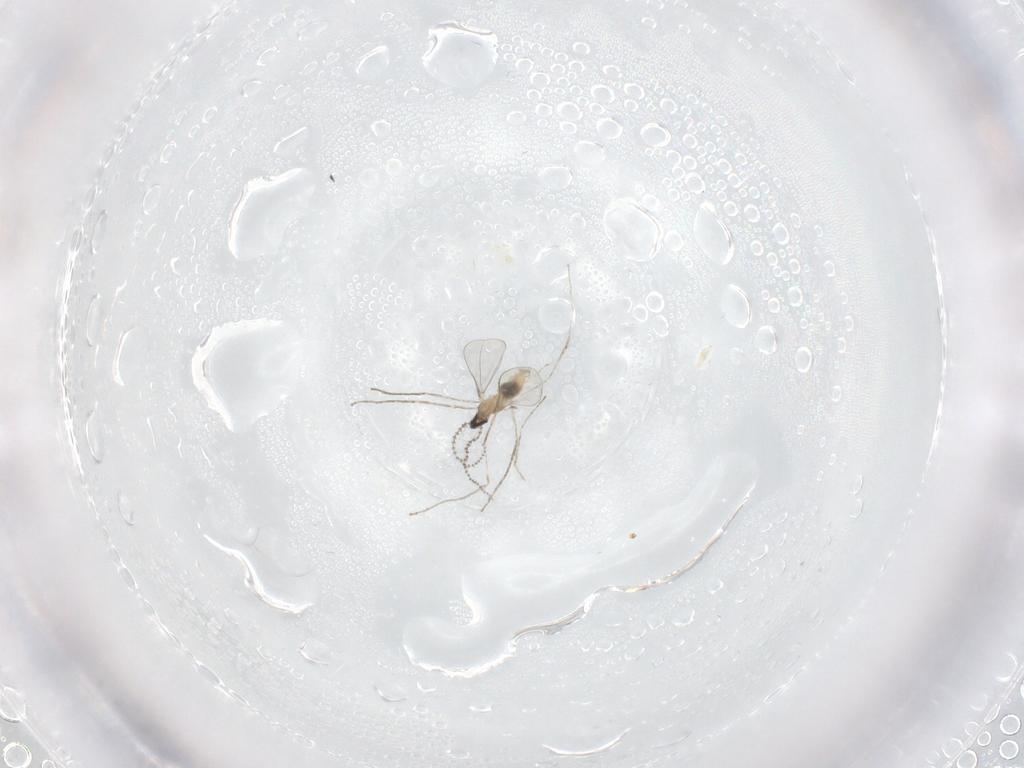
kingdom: Animalia
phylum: Arthropoda
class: Insecta
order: Diptera
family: Cecidomyiidae
